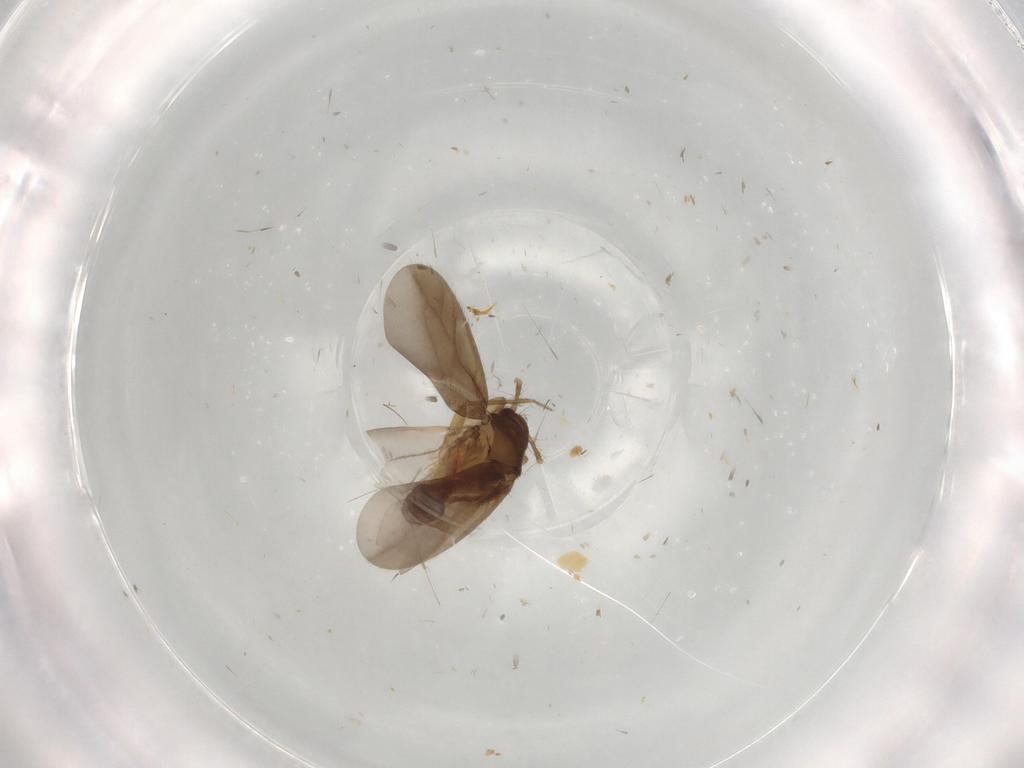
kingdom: Animalia
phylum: Arthropoda
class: Insecta
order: Hemiptera
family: Ceratocombidae
